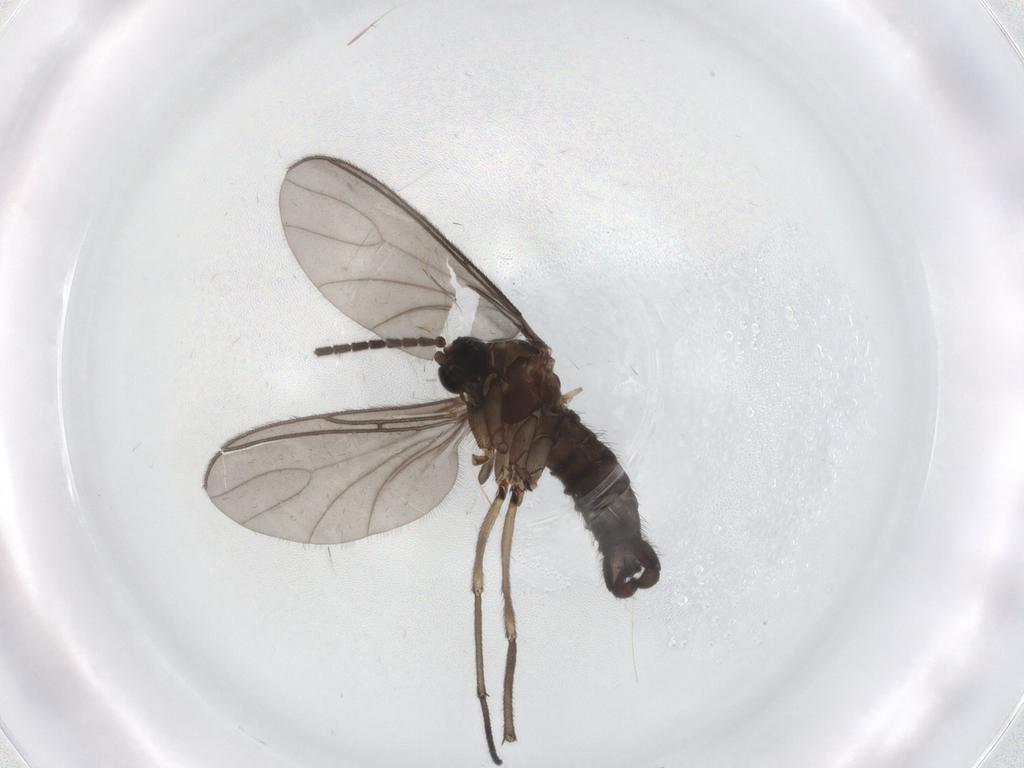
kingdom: Animalia
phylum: Arthropoda
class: Insecta
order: Diptera
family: Sciaridae
